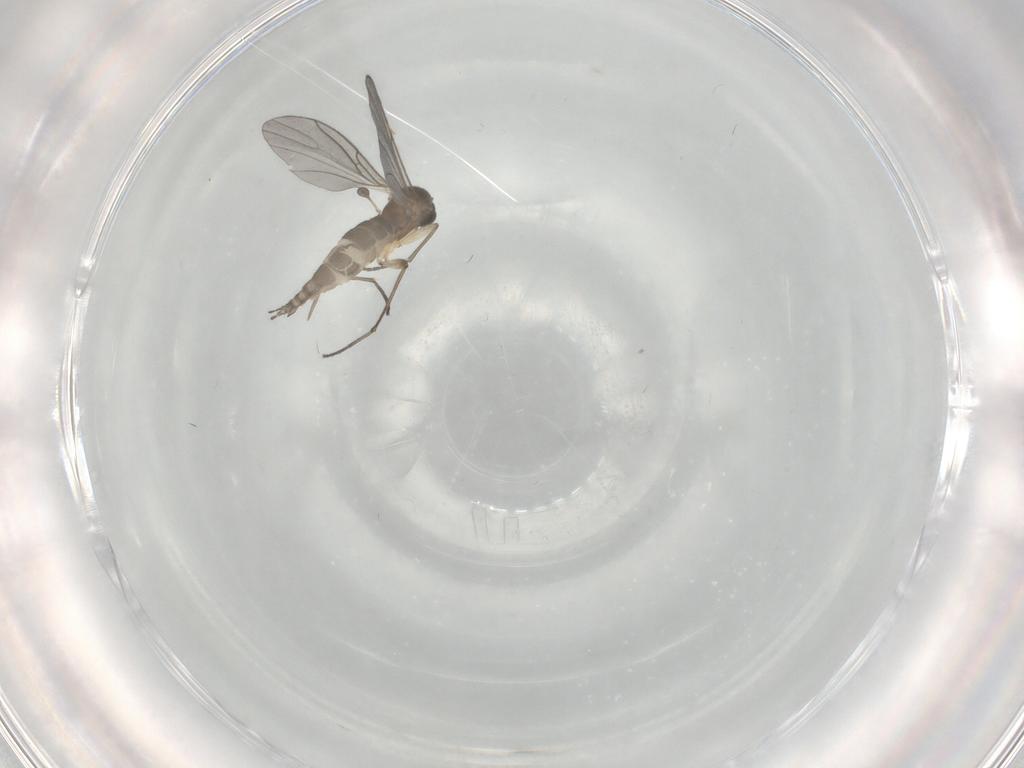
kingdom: Animalia
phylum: Arthropoda
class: Insecta
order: Diptera
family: Sciaridae
